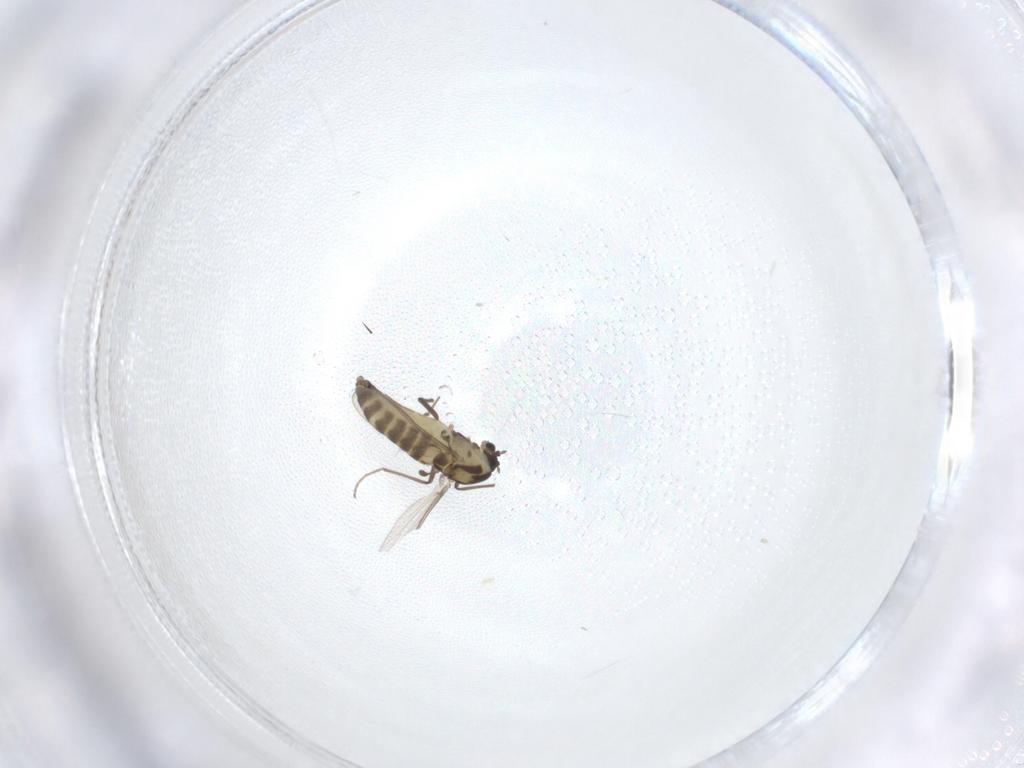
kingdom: Animalia
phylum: Arthropoda
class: Insecta
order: Diptera
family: Chironomidae
